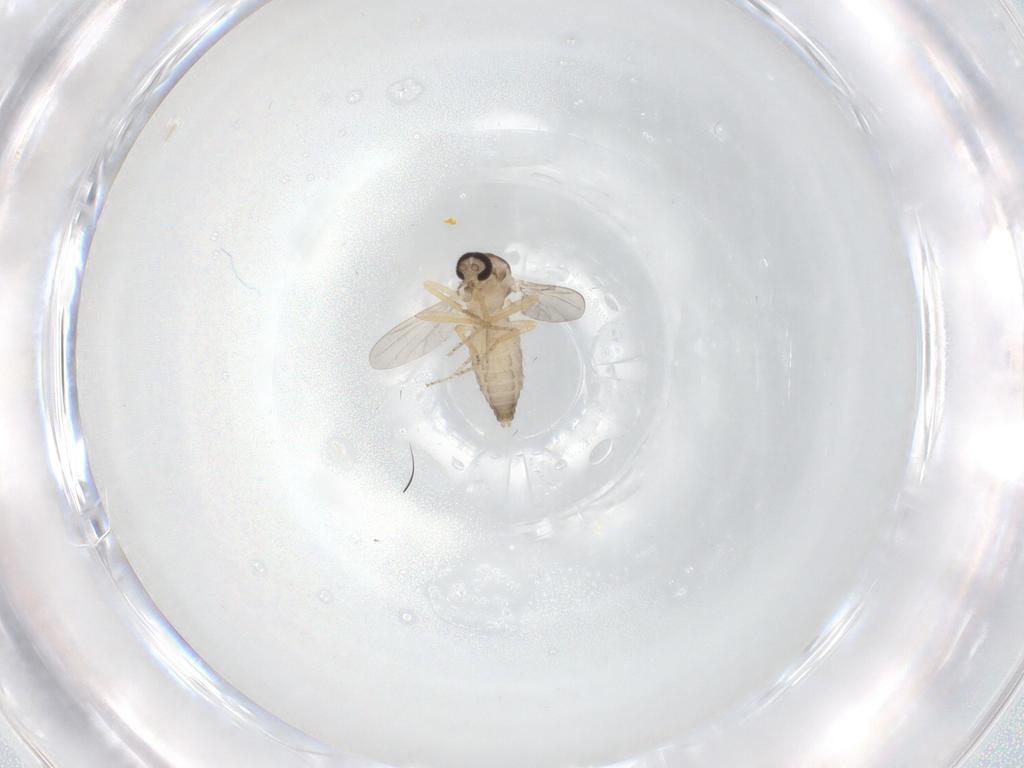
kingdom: Animalia
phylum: Arthropoda
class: Insecta
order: Diptera
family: Ceratopogonidae
